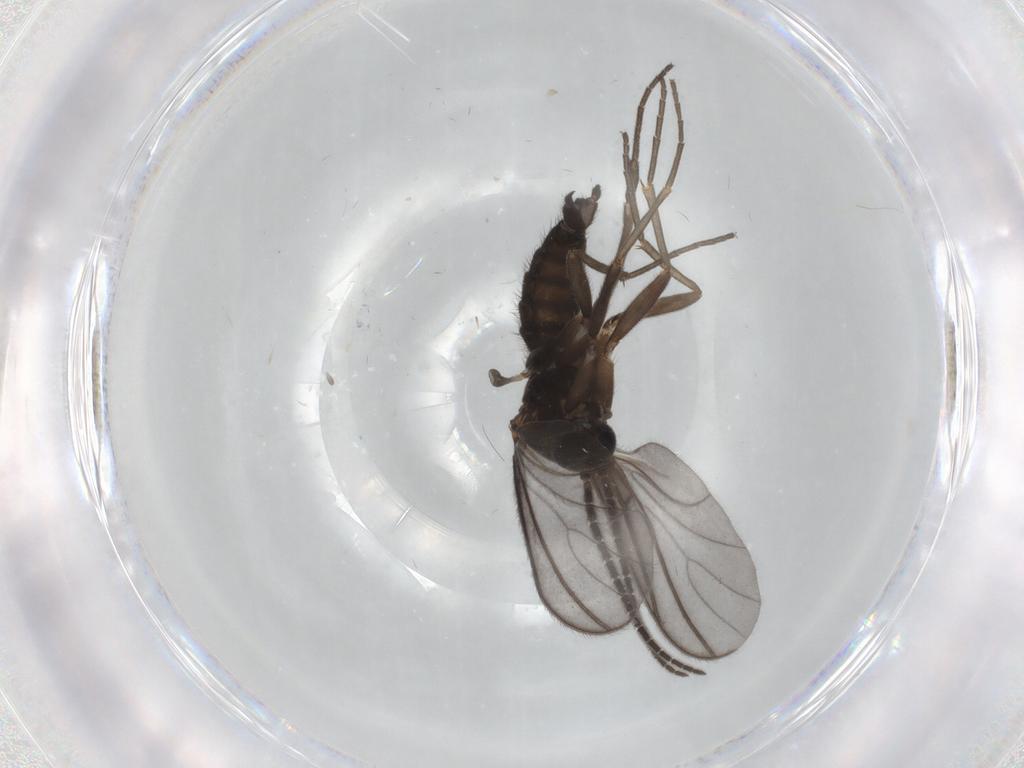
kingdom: Animalia
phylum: Arthropoda
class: Insecta
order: Diptera
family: Sciaridae
